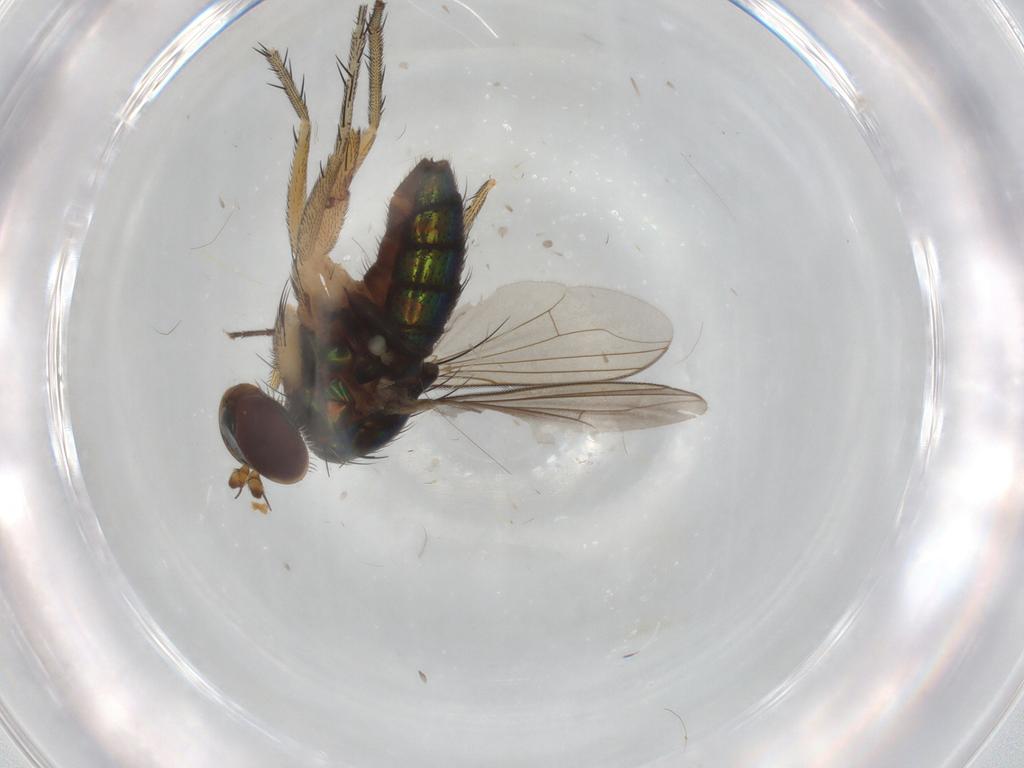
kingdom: Animalia
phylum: Arthropoda
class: Insecta
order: Diptera
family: Dolichopodidae
